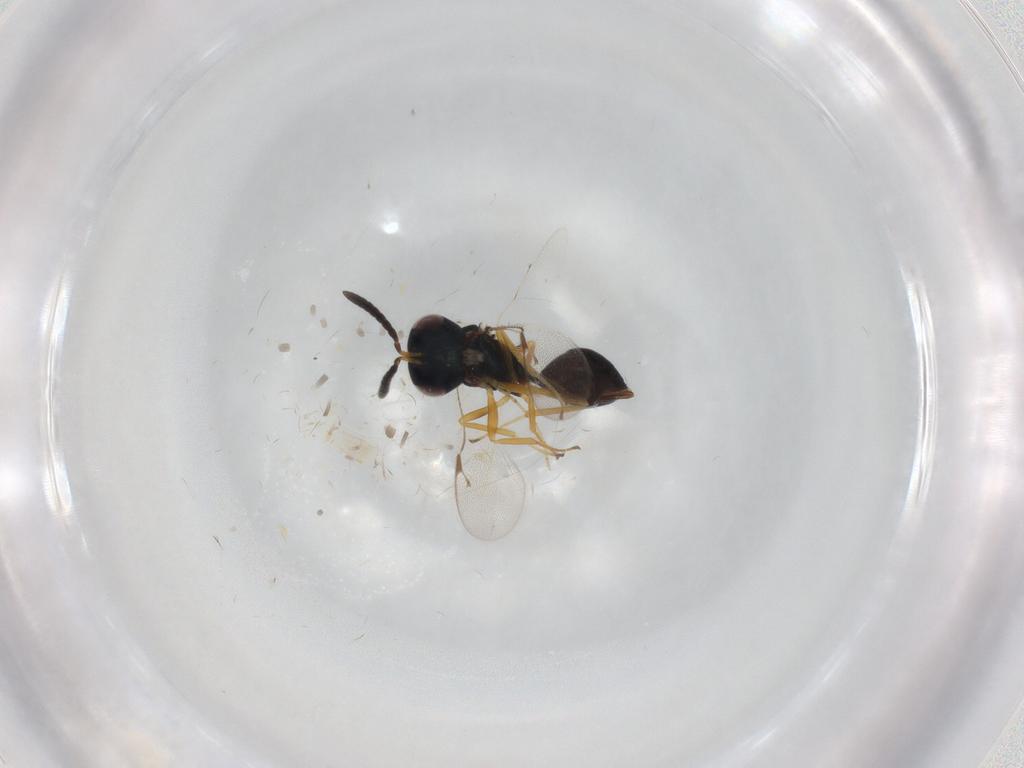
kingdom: Animalia
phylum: Arthropoda
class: Insecta
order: Hymenoptera
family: Pteromalidae
